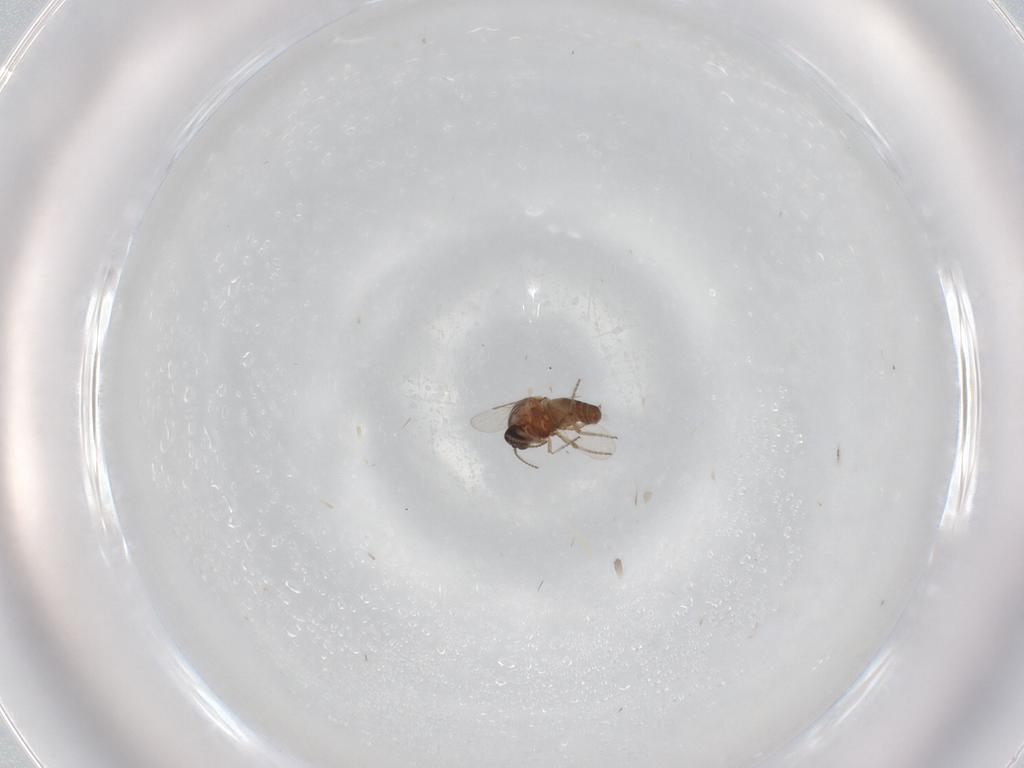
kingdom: Animalia
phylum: Arthropoda
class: Insecta
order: Diptera
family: Ceratopogonidae
